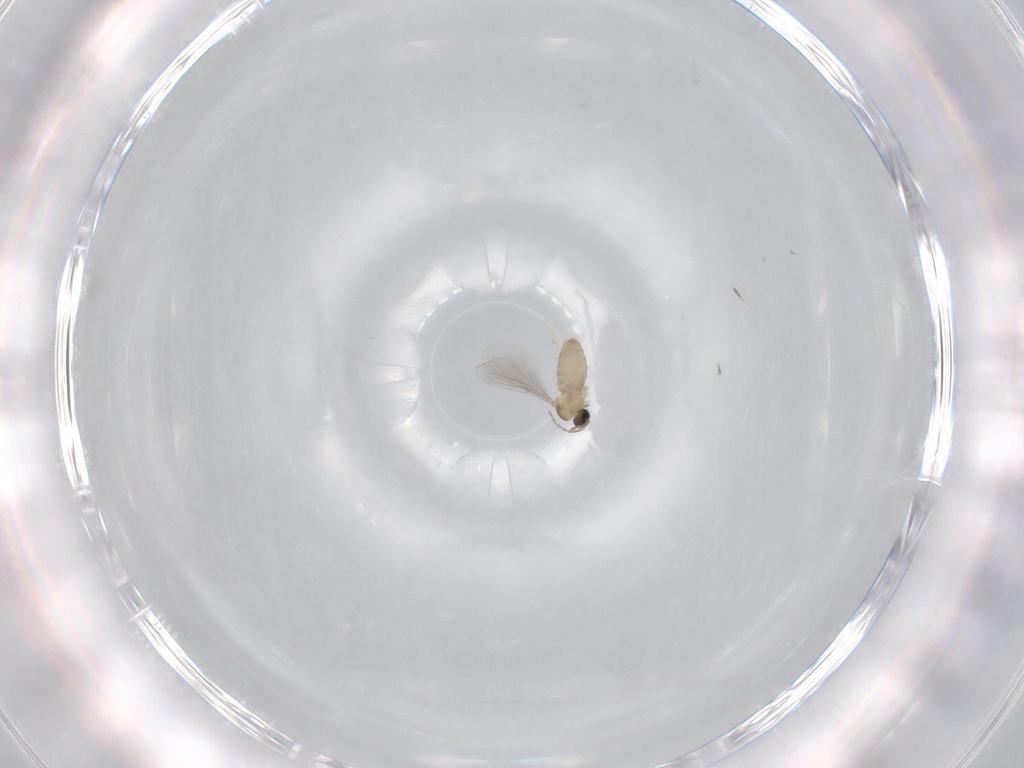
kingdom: Animalia
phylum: Arthropoda
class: Insecta
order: Diptera
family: Cecidomyiidae
